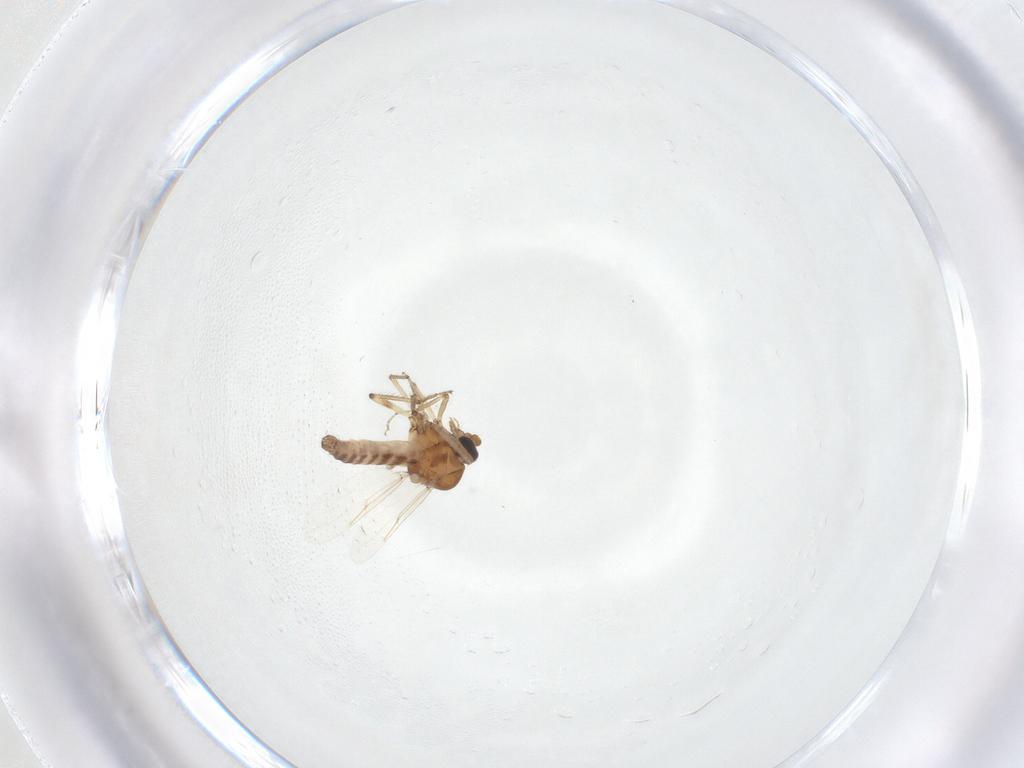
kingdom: Animalia
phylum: Arthropoda
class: Insecta
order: Diptera
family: Ceratopogonidae
